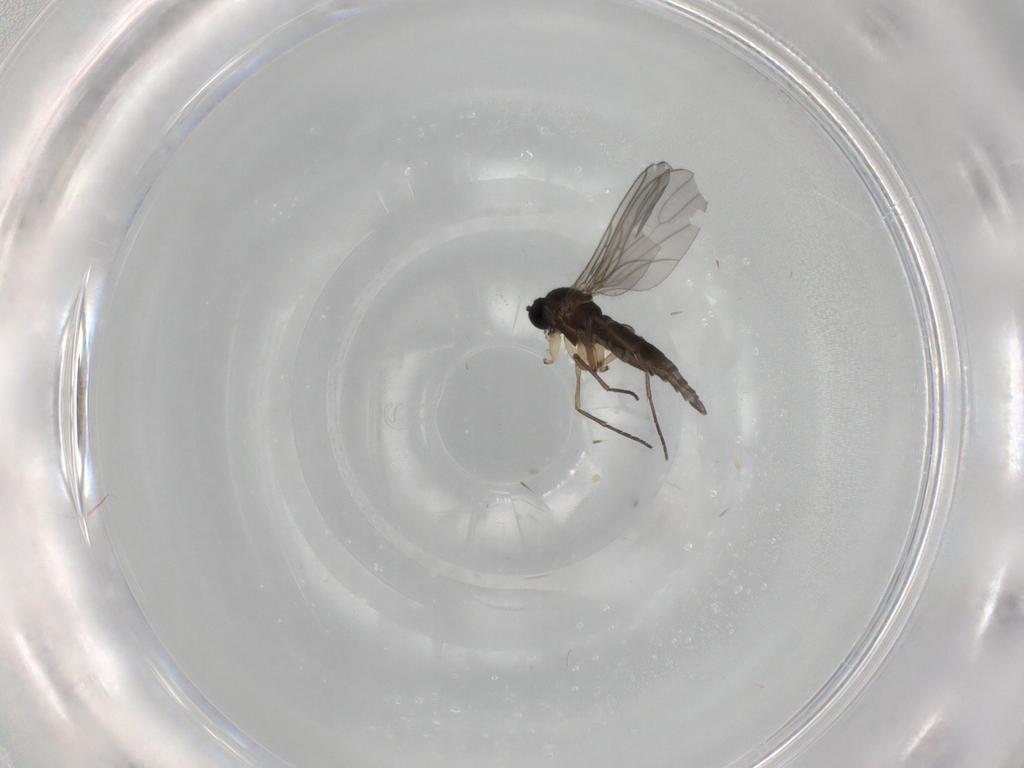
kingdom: Animalia
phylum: Arthropoda
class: Insecta
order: Diptera
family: Sciaridae
